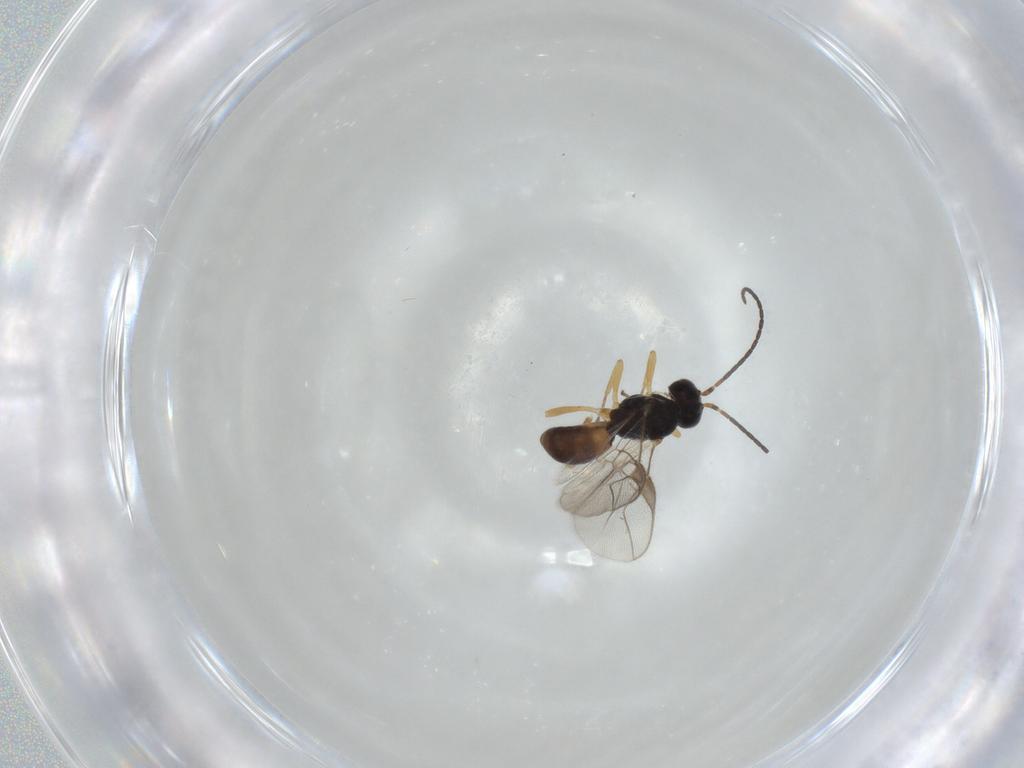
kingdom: Animalia
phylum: Arthropoda
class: Insecta
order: Hymenoptera
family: Braconidae
